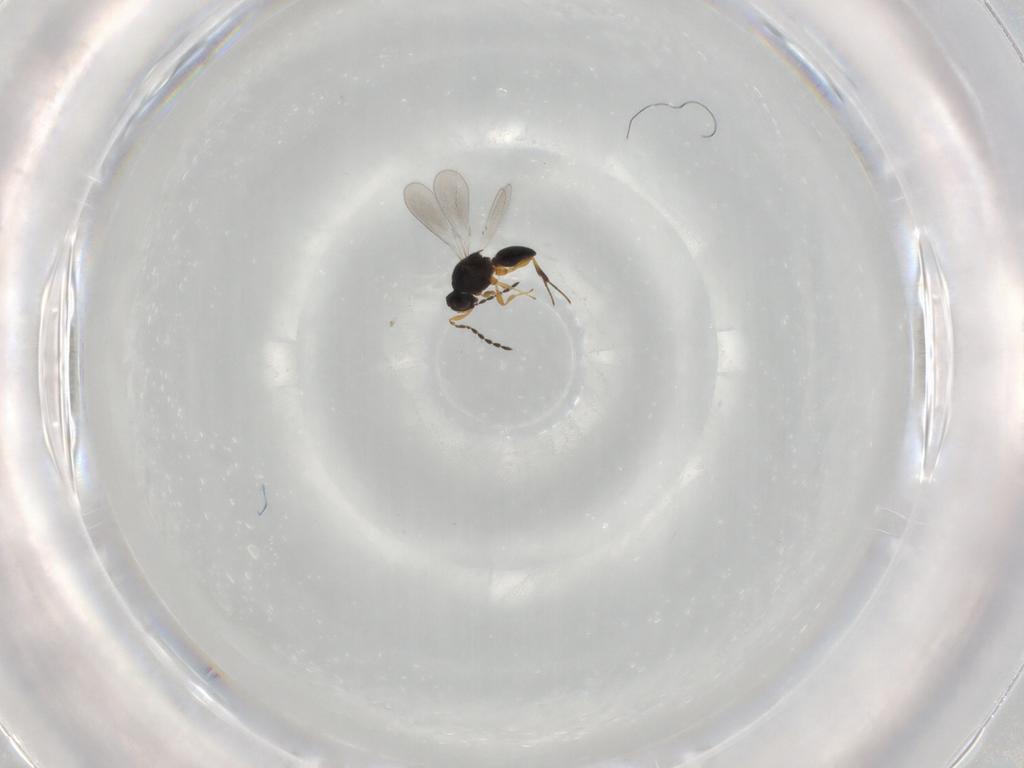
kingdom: Animalia
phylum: Arthropoda
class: Insecta
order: Hymenoptera
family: Platygastridae
